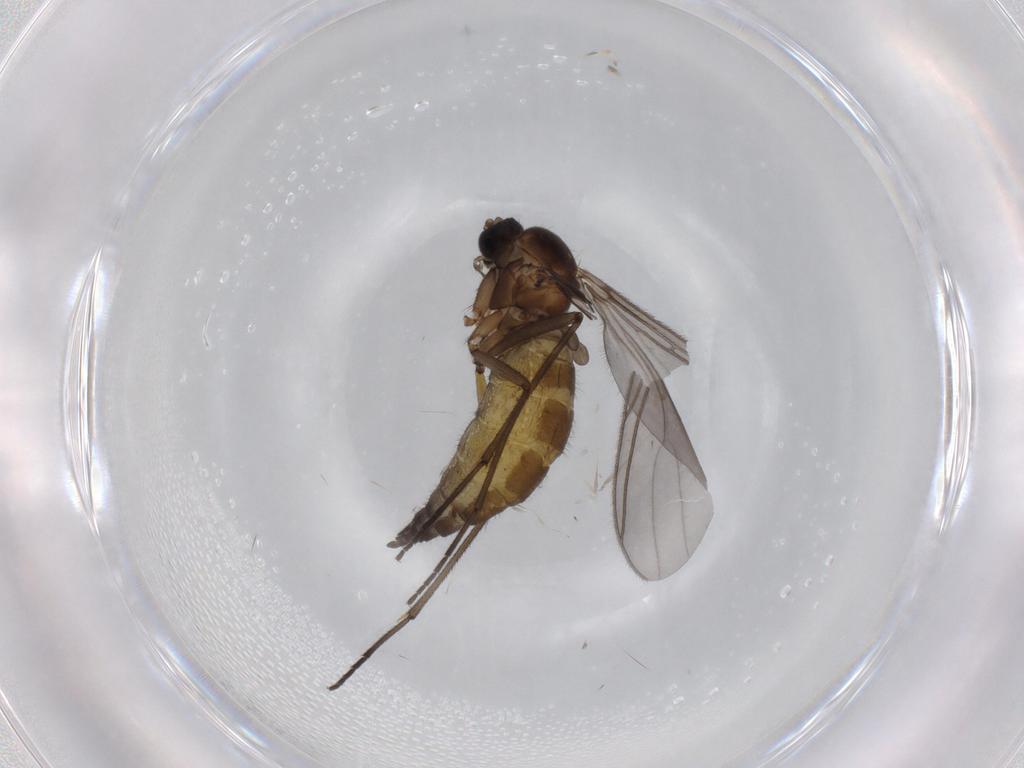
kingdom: Animalia
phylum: Arthropoda
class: Insecta
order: Diptera
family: Sciaridae
